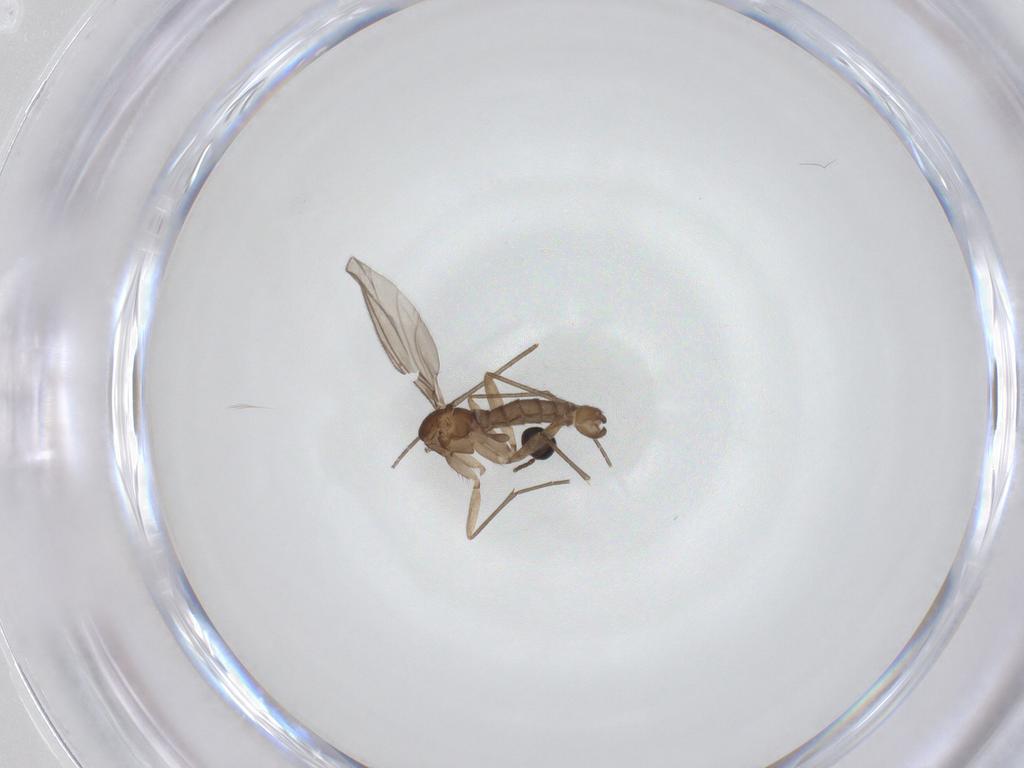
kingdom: Animalia
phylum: Arthropoda
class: Insecta
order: Diptera
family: Sciaridae
